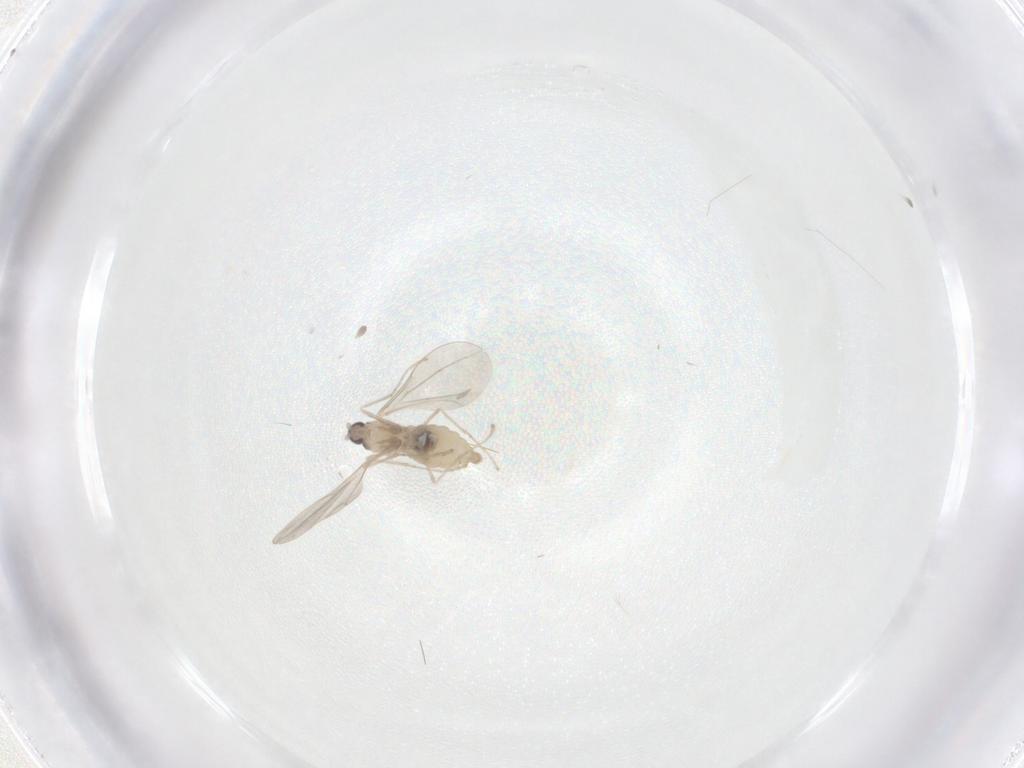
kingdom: Animalia
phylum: Arthropoda
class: Insecta
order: Diptera
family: Cecidomyiidae
